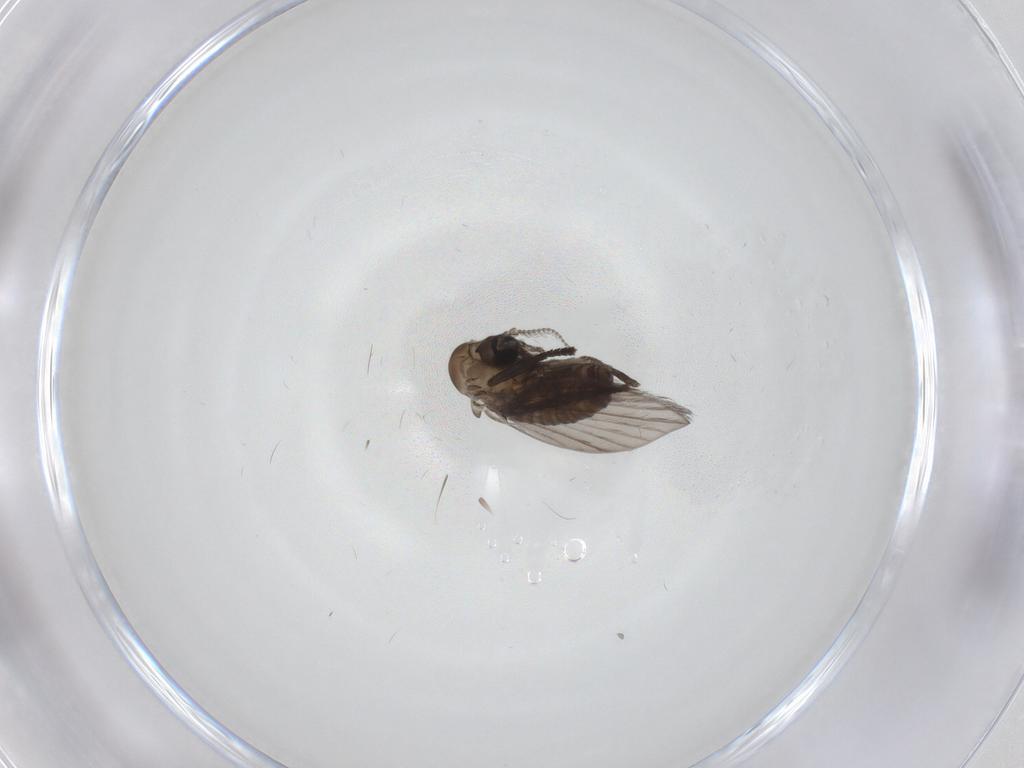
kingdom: Animalia
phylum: Arthropoda
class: Insecta
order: Diptera
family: Psychodidae
